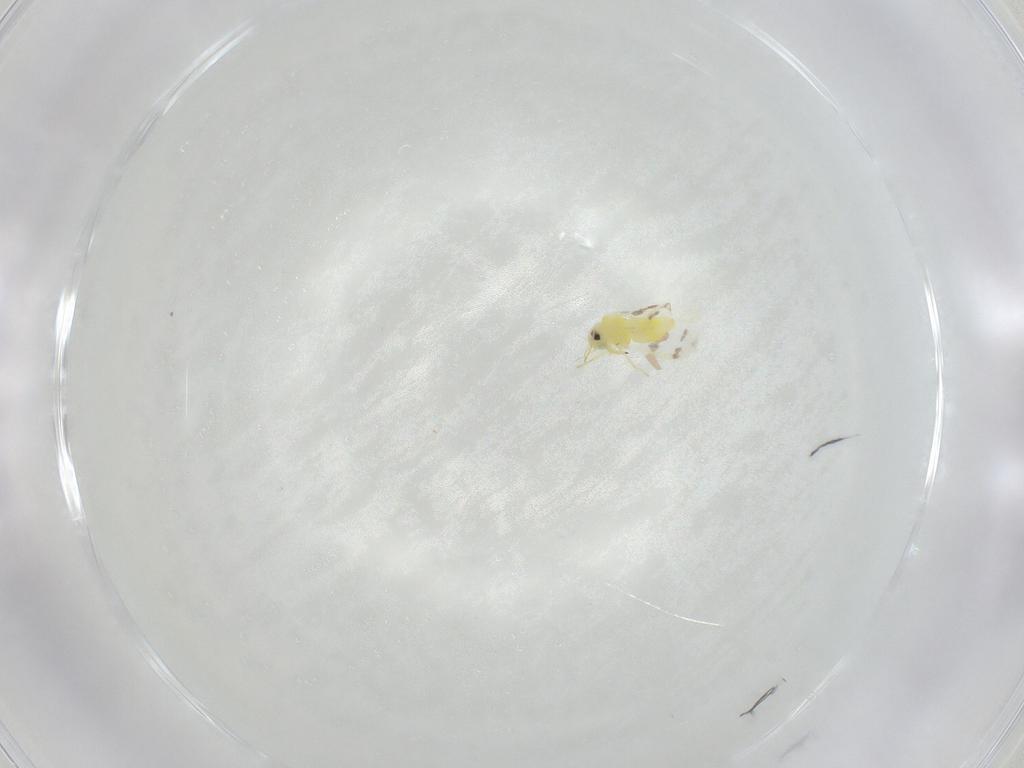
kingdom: Animalia
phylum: Arthropoda
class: Insecta
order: Hemiptera
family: Aleyrodidae
